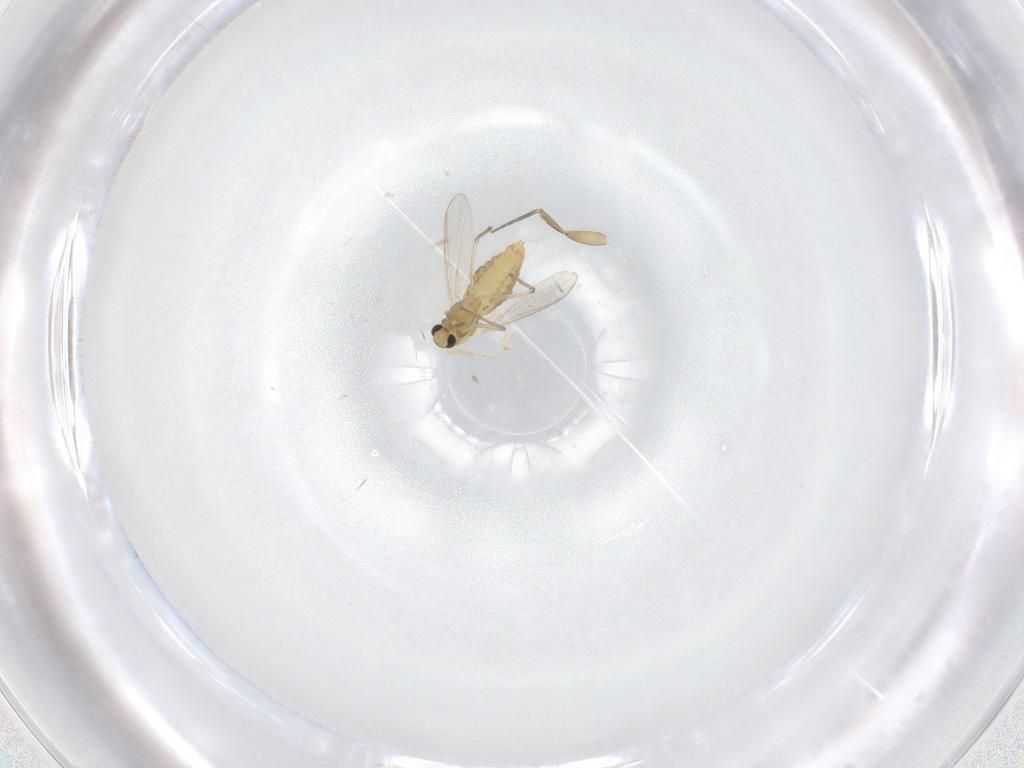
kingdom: Animalia
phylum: Arthropoda
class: Insecta
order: Diptera
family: Chironomidae
